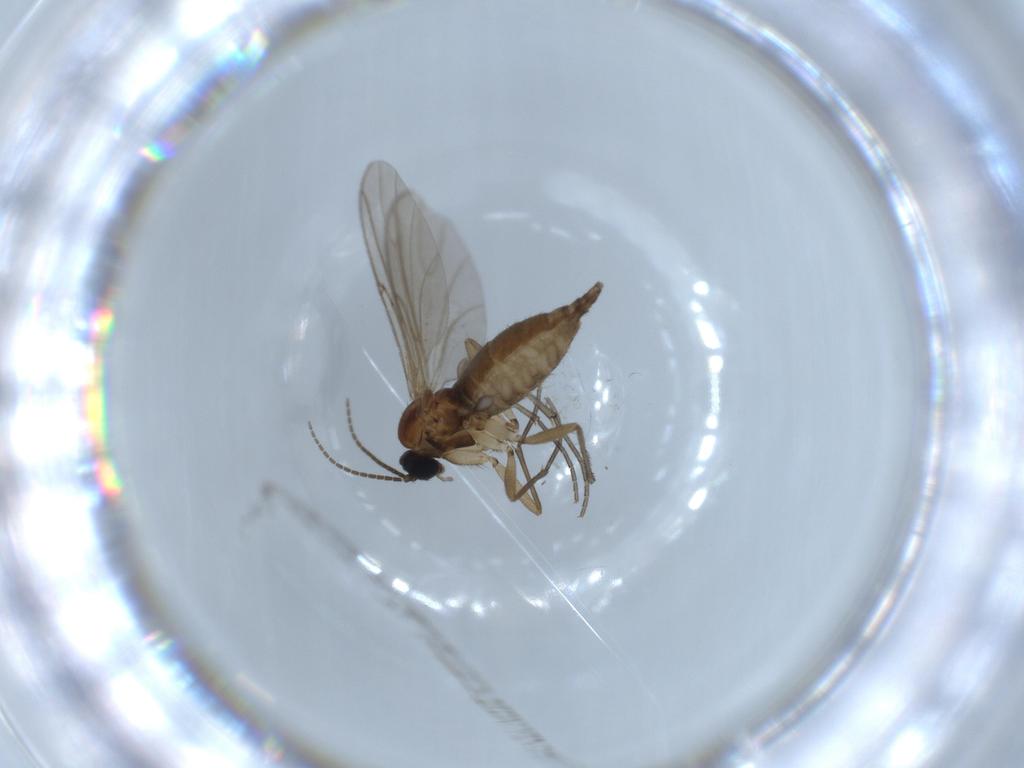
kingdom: Animalia
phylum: Arthropoda
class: Insecta
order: Diptera
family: Sciaridae
